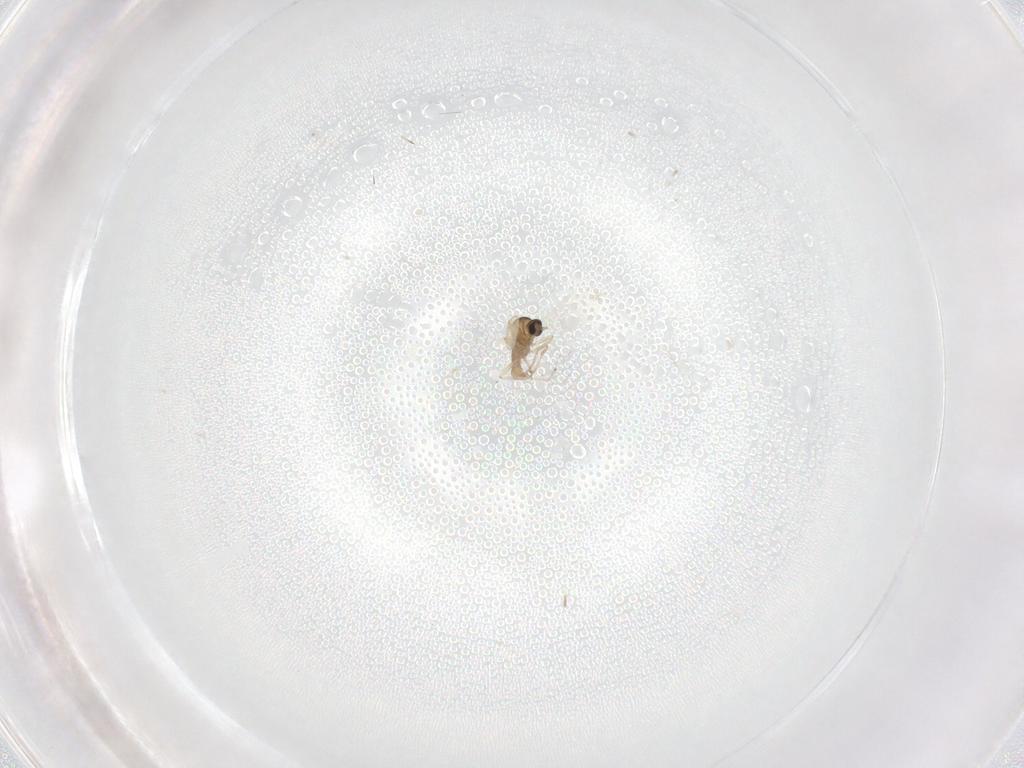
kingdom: Animalia
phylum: Arthropoda
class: Insecta
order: Diptera
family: Cecidomyiidae
